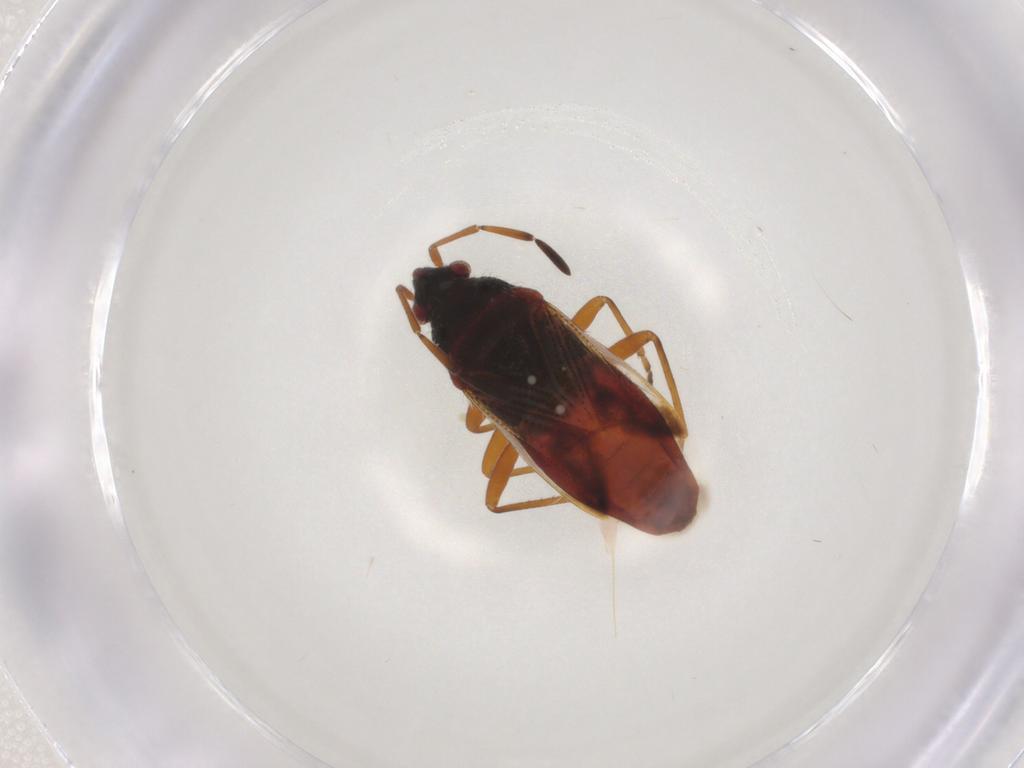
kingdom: Animalia
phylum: Arthropoda
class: Insecta
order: Hemiptera
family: Rhyparochromidae
